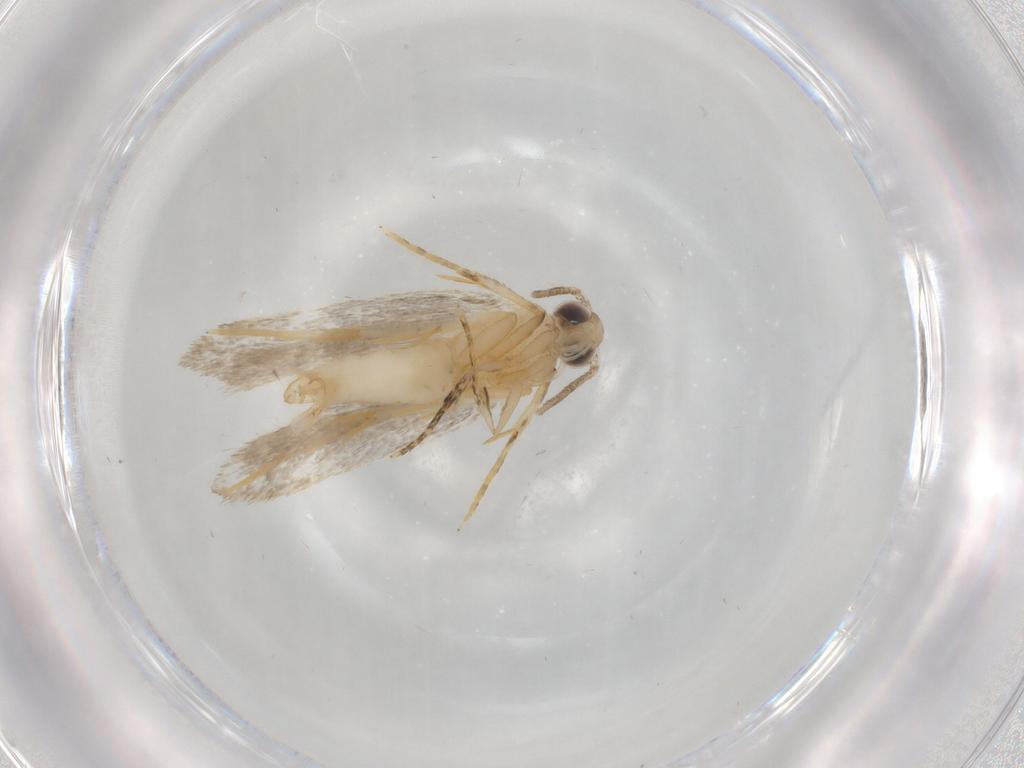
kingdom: Animalia
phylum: Arthropoda
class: Insecta
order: Lepidoptera
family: Autostichidae
